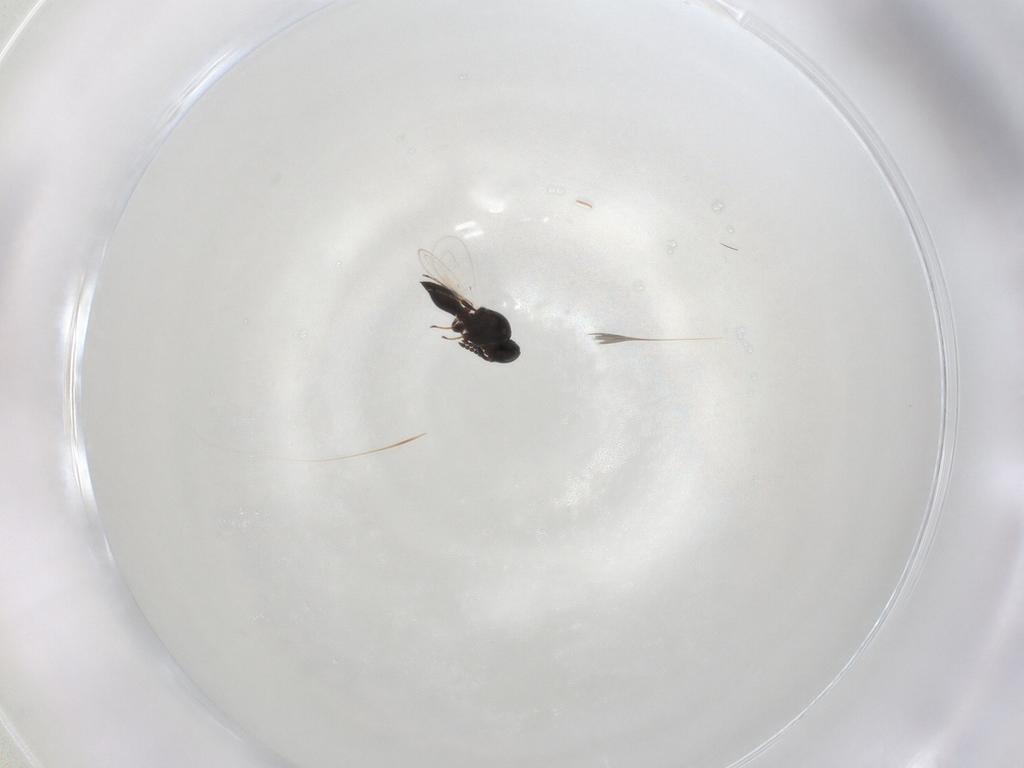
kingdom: Animalia
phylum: Arthropoda
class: Insecta
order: Hymenoptera
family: Platygastridae
